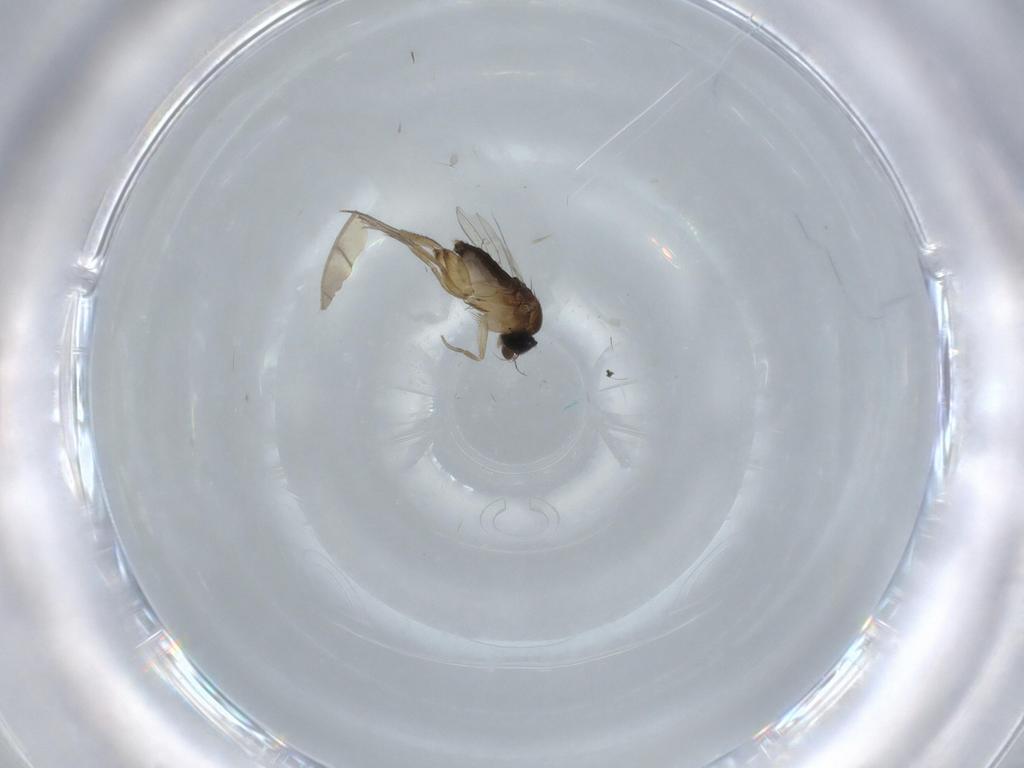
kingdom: Animalia
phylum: Arthropoda
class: Insecta
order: Diptera
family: Phoridae
